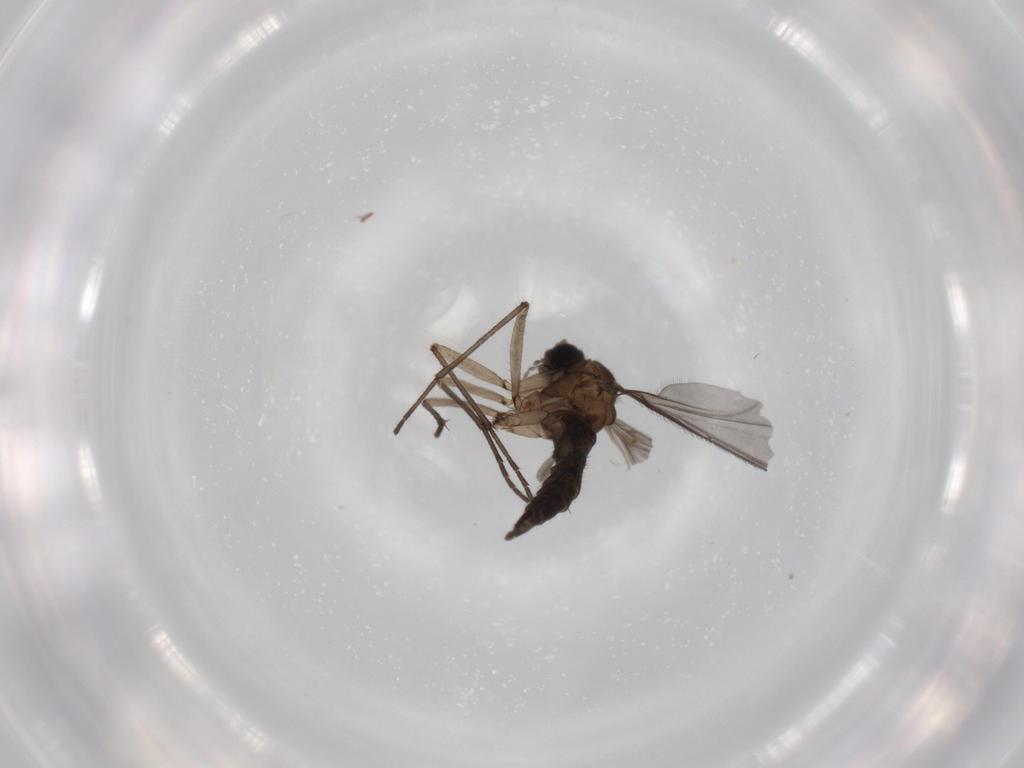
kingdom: Animalia
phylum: Arthropoda
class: Insecta
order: Diptera
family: Sciaridae
